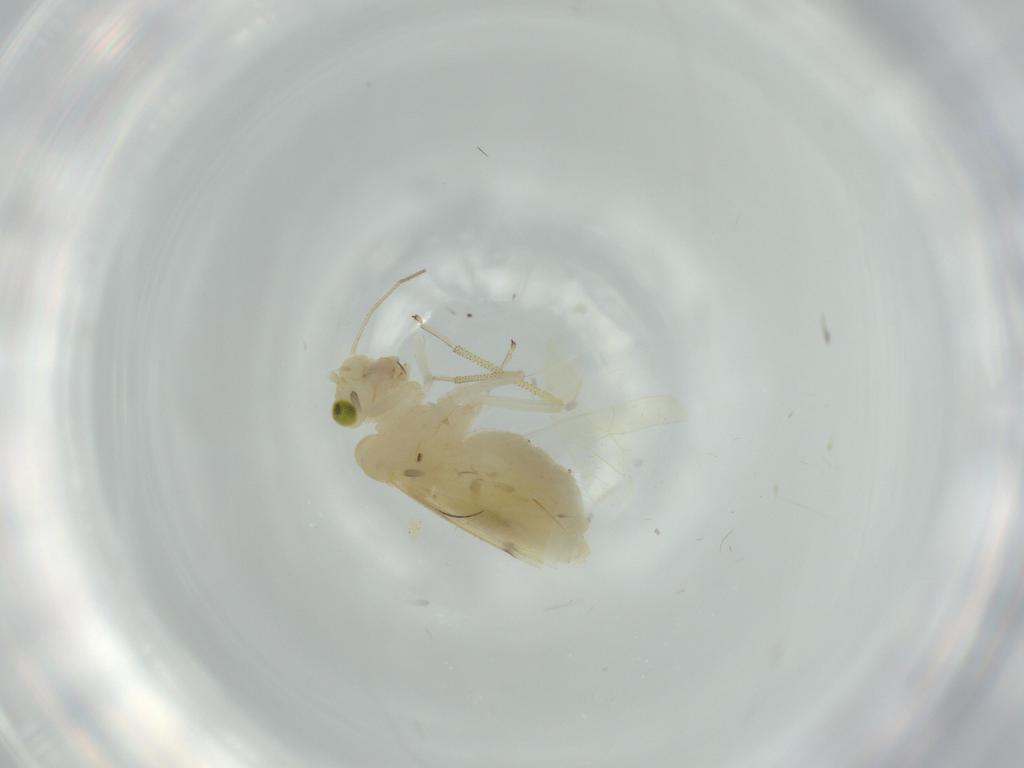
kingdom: Animalia
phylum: Arthropoda
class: Insecta
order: Psocodea
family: Caeciliusidae
